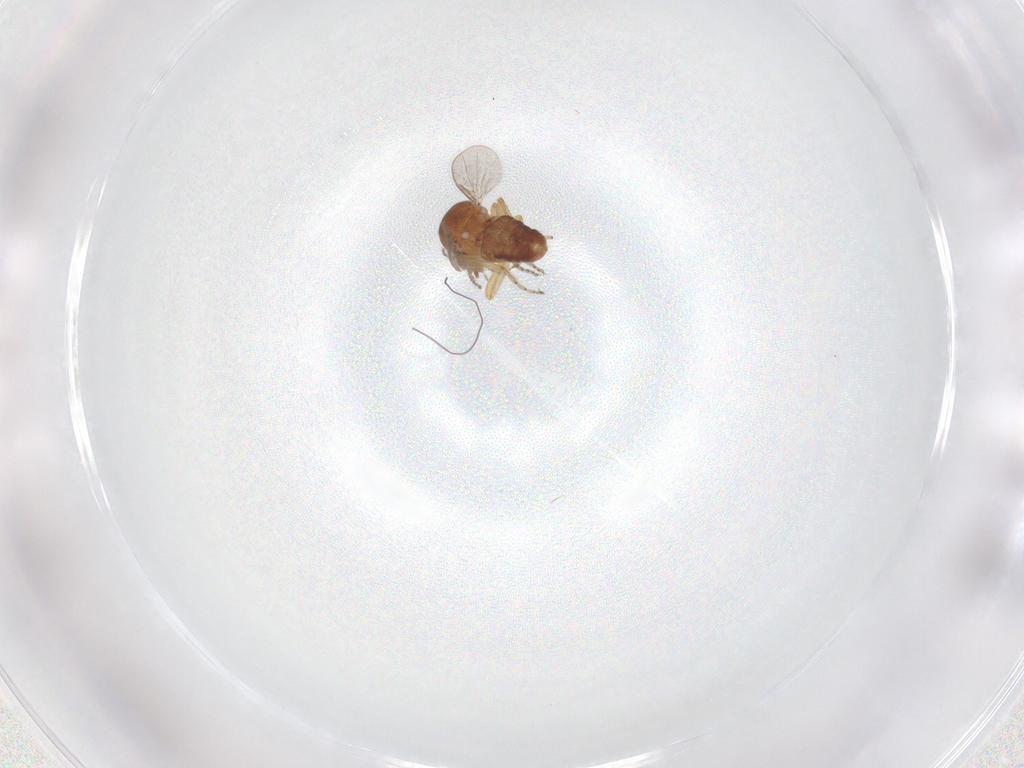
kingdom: Animalia
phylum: Arthropoda
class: Insecta
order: Diptera
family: Ceratopogonidae
